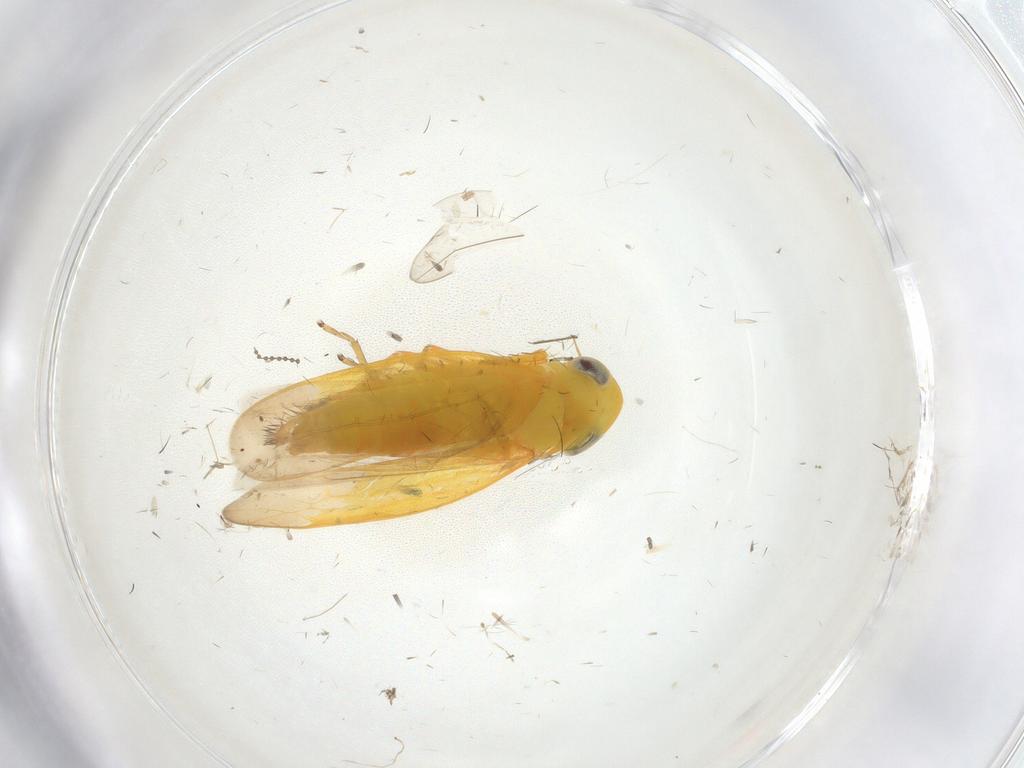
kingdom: Animalia
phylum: Arthropoda
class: Insecta
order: Hemiptera
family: Cicadellidae
